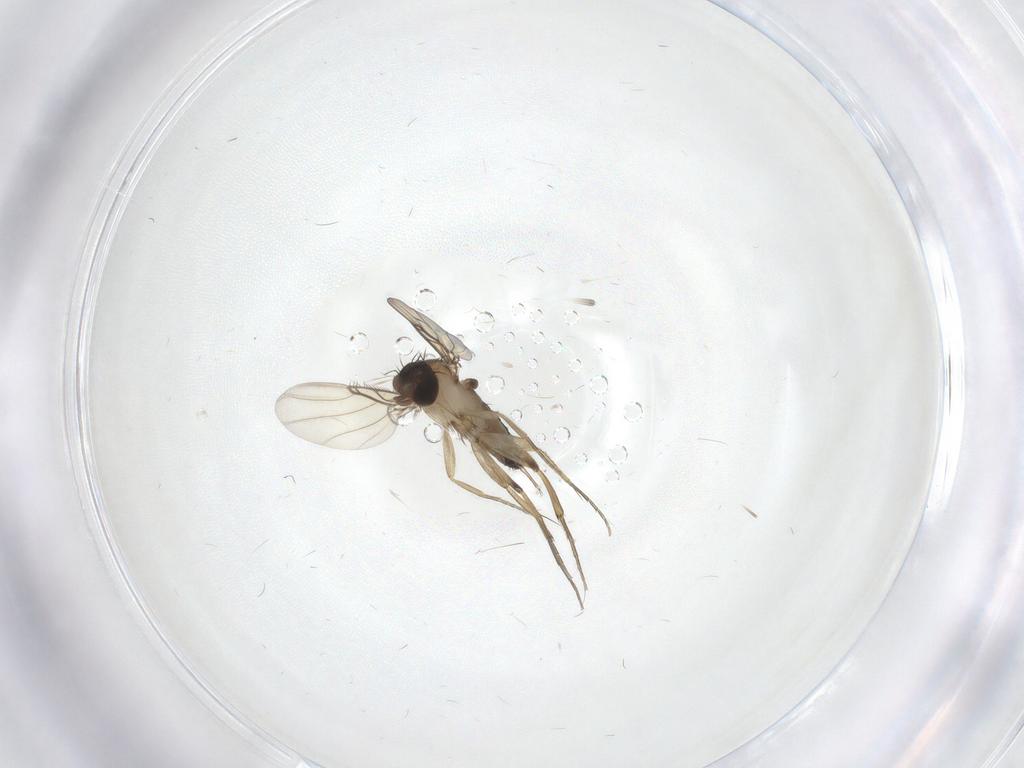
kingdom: Animalia
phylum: Arthropoda
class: Insecta
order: Diptera
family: Phoridae
